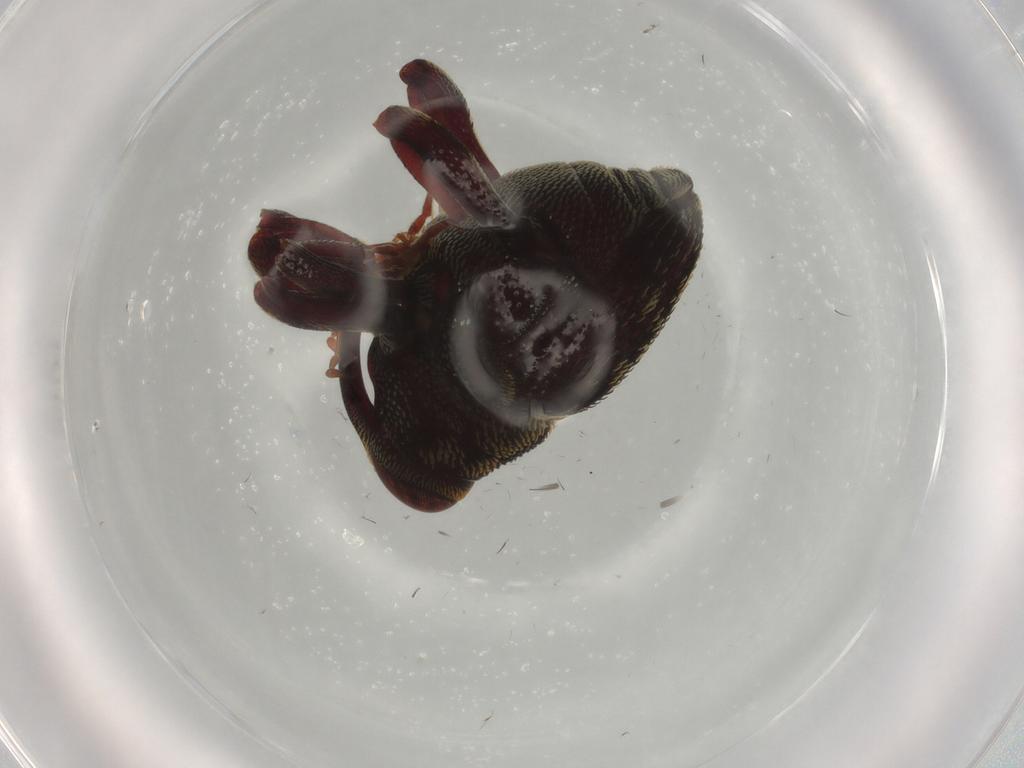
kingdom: Animalia
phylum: Arthropoda
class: Insecta
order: Coleoptera
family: Curculionidae
